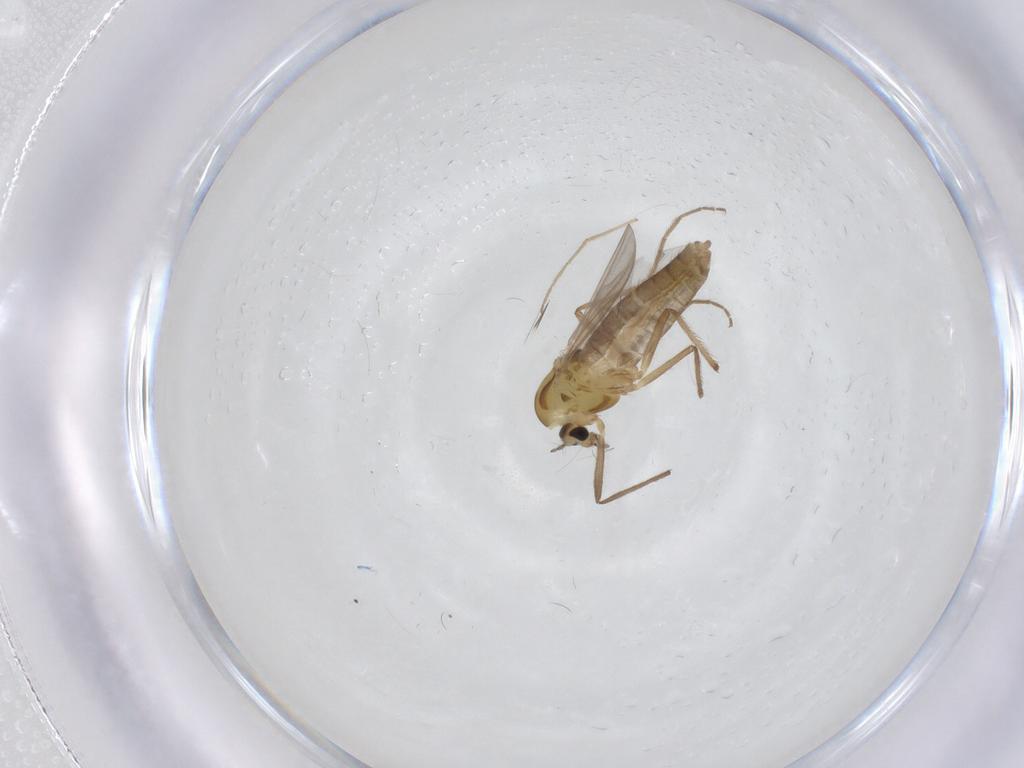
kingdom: Animalia
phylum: Arthropoda
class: Insecta
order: Diptera
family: Chironomidae
